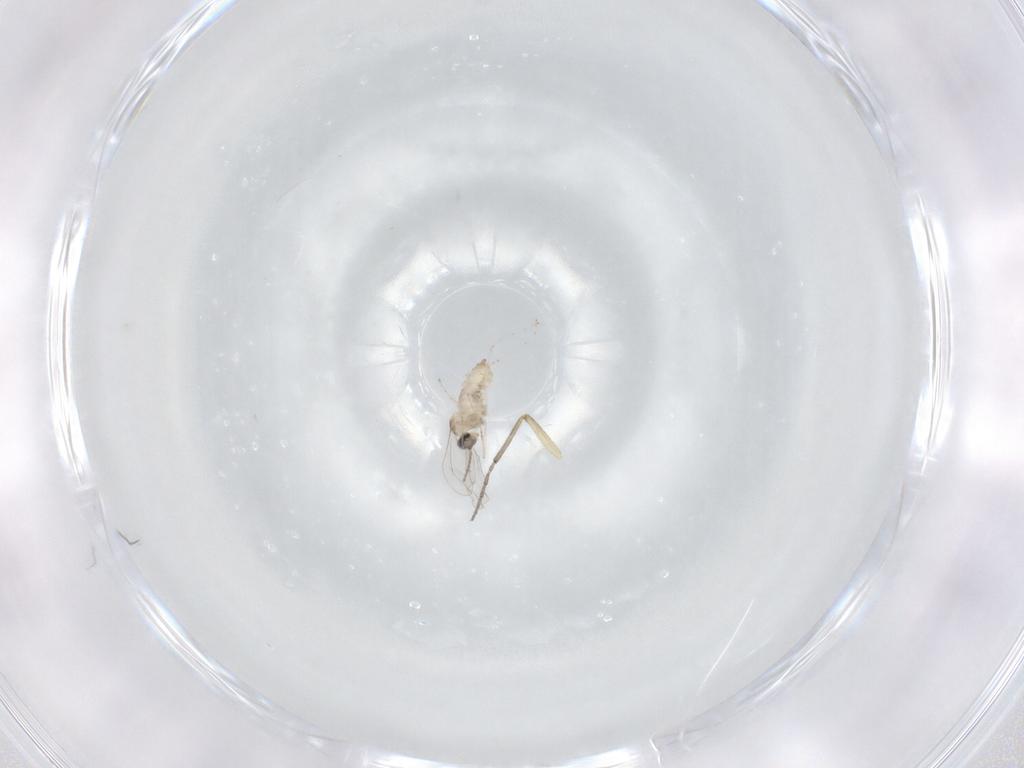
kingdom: Animalia
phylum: Arthropoda
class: Insecta
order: Diptera
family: Cecidomyiidae
